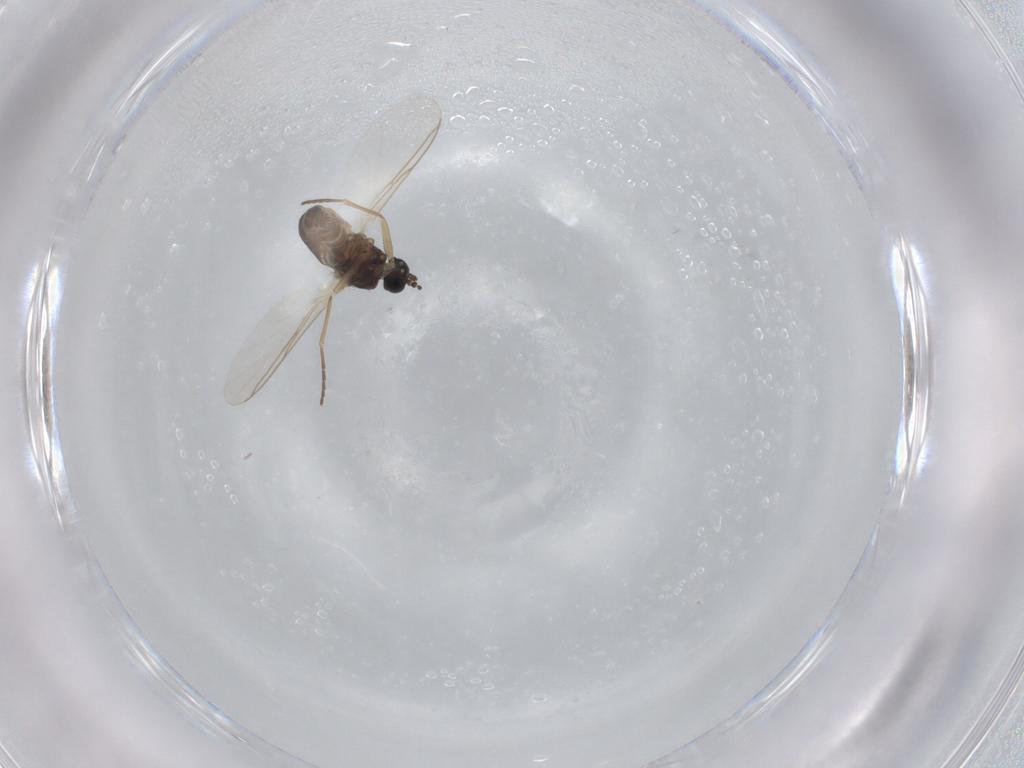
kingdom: Animalia
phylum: Arthropoda
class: Insecta
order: Diptera
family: Sciaridae
